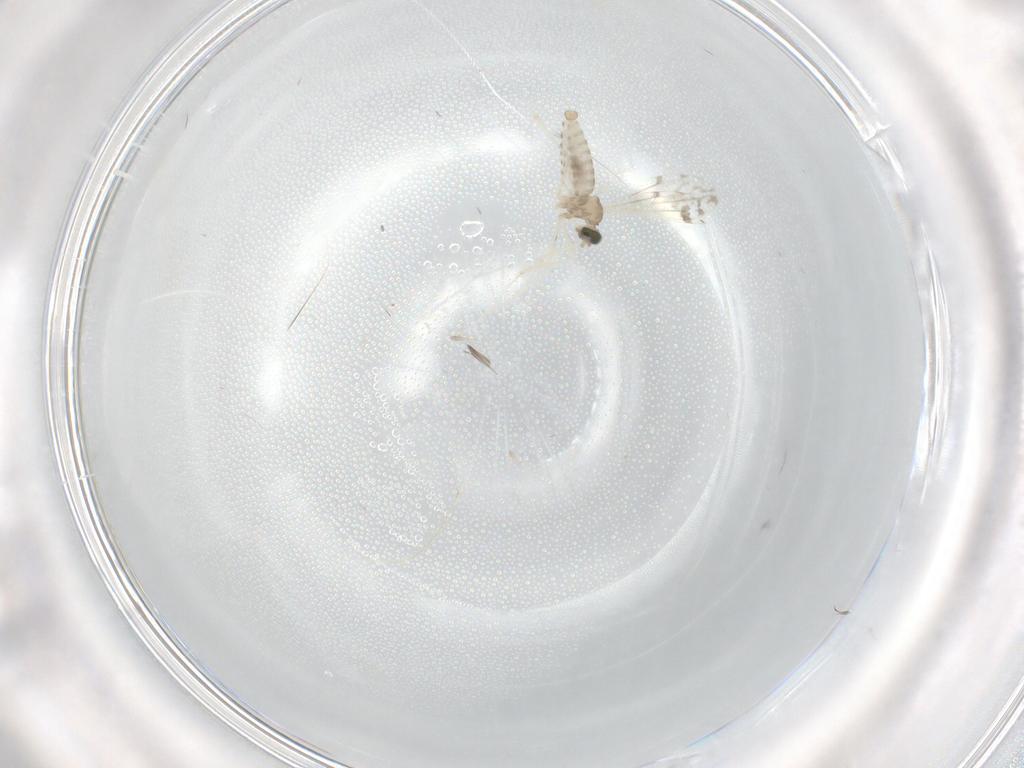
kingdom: Animalia
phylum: Arthropoda
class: Insecta
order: Diptera
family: Cecidomyiidae
